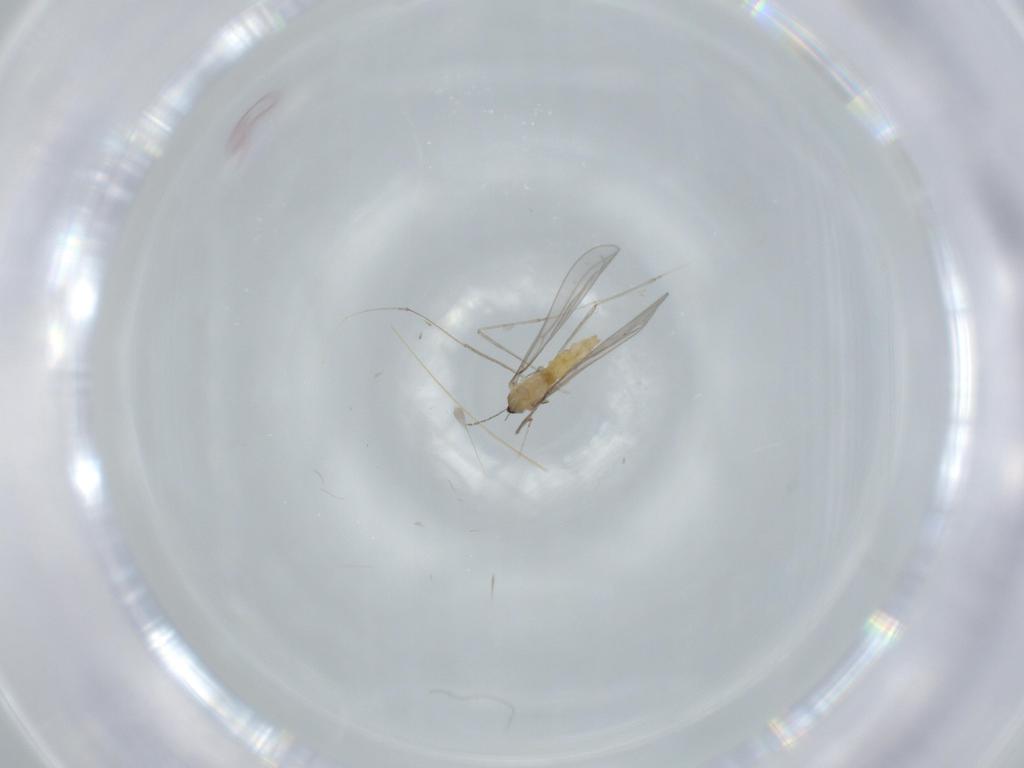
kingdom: Animalia
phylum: Arthropoda
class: Insecta
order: Diptera
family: Cecidomyiidae
